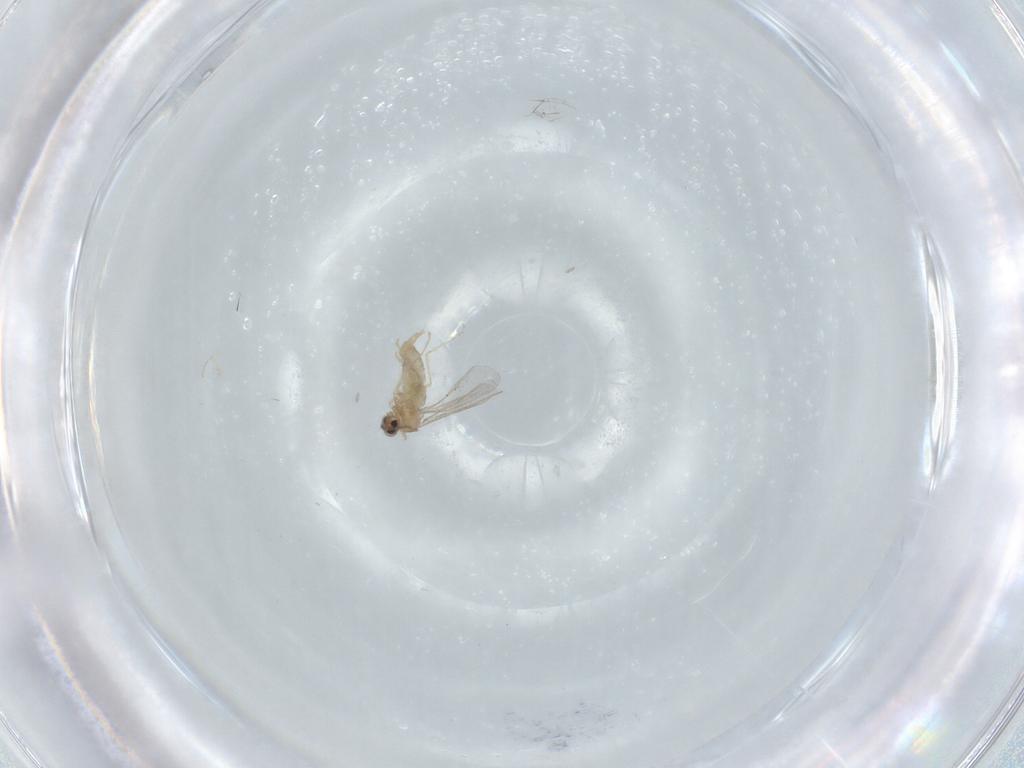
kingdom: Animalia
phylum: Arthropoda
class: Insecta
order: Diptera
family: Cecidomyiidae
